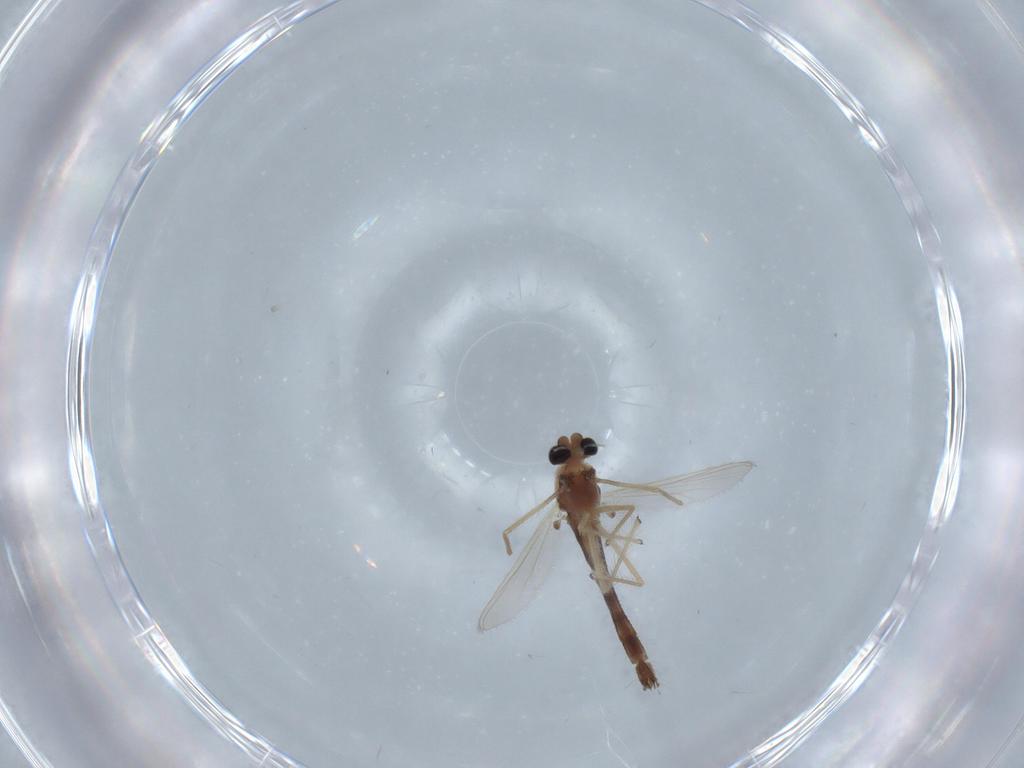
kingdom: Animalia
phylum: Arthropoda
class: Insecta
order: Diptera
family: Chironomidae
